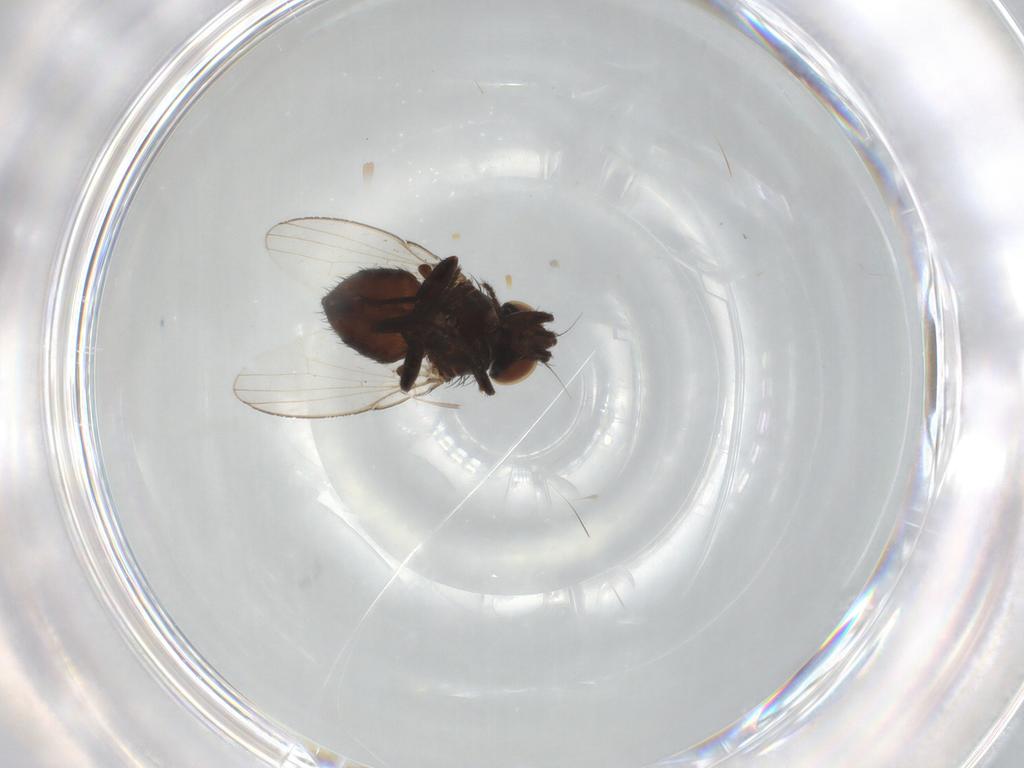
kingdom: Animalia
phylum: Arthropoda
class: Insecta
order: Diptera
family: Milichiidae
